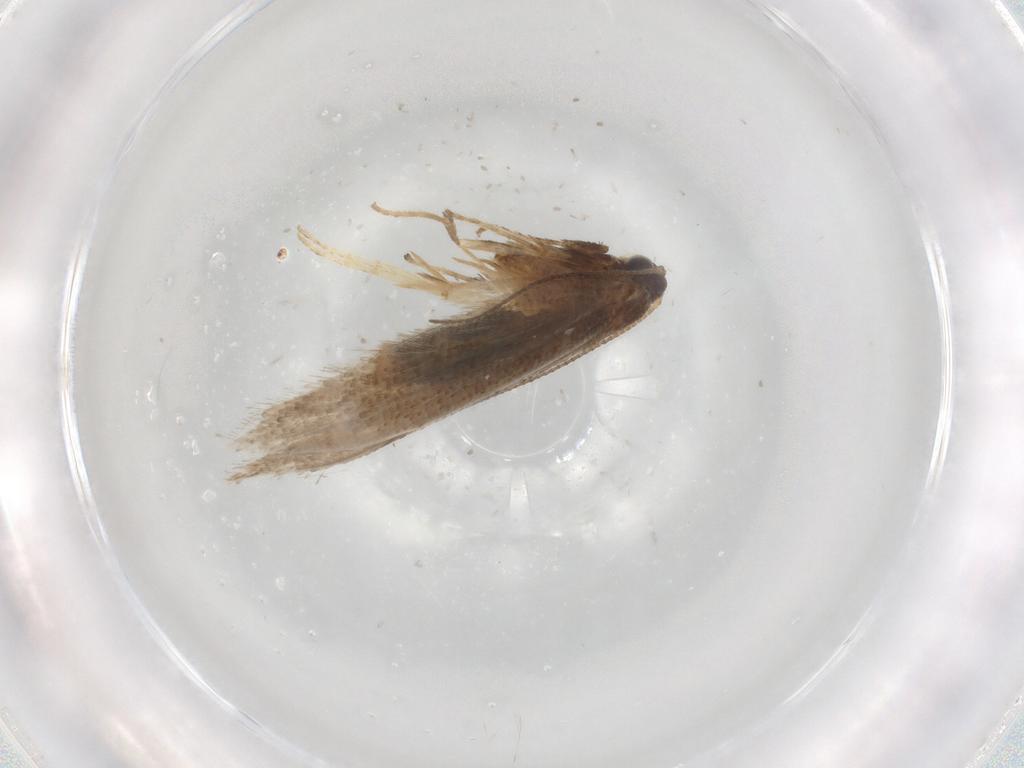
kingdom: Animalia
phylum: Arthropoda
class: Insecta
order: Lepidoptera
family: Nepticulidae
